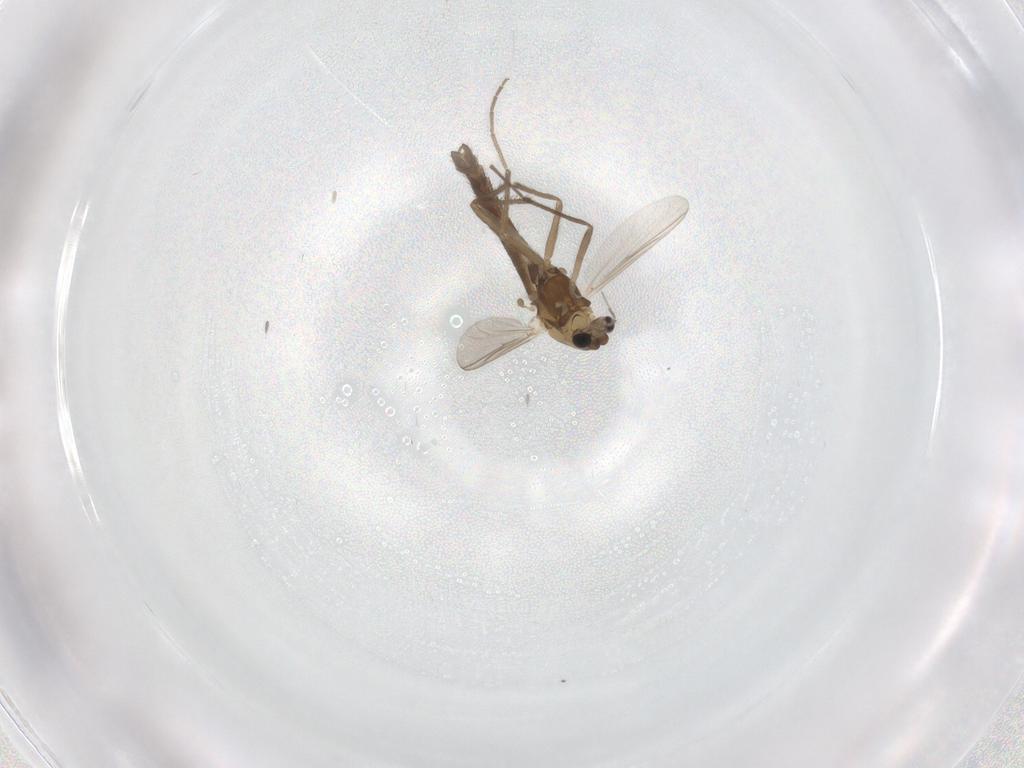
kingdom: Animalia
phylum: Arthropoda
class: Insecta
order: Diptera
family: Chironomidae
